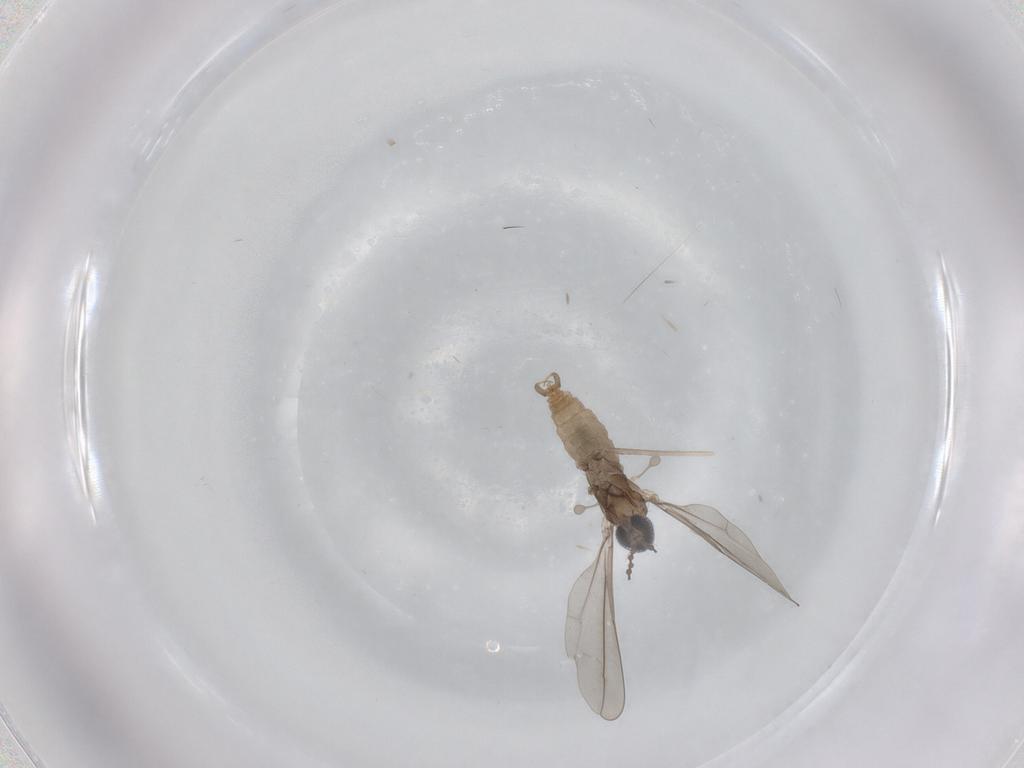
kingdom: Animalia
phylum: Arthropoda
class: Insecta
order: Diptera
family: Cecidomyiidae
